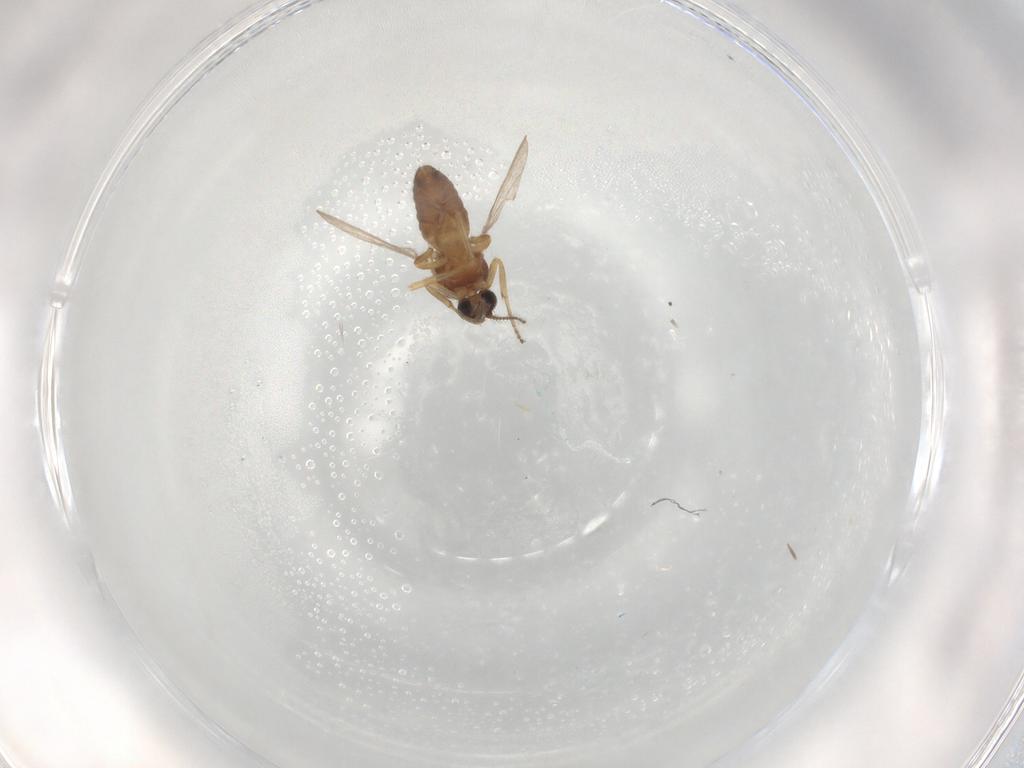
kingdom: Animalia
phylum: Arthropoda
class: Insecta
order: Diptera
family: Ceratopogonidae
